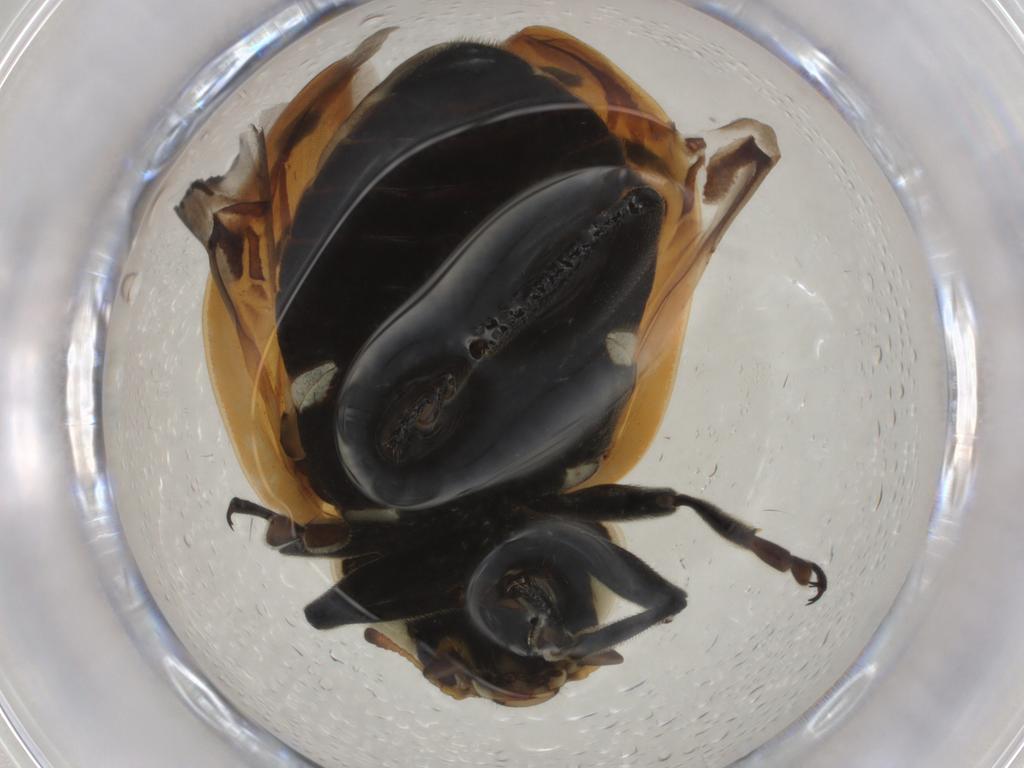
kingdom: Animalia
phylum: Arthropoda
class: Insecta
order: Coleoptera
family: Coccinellidae
